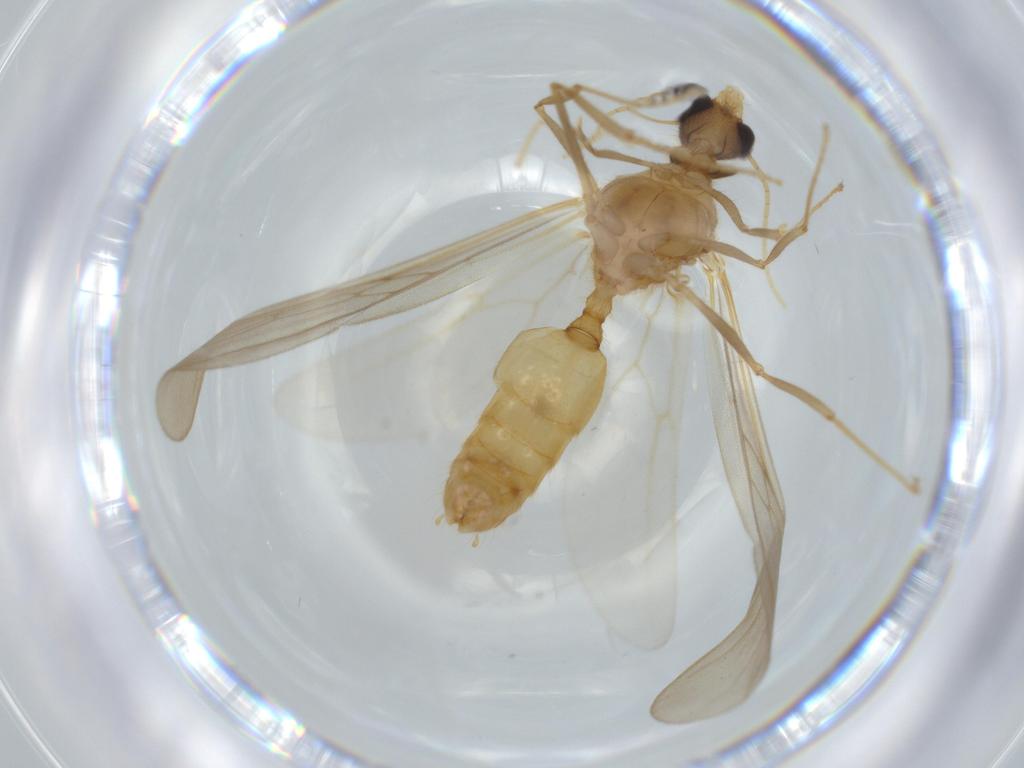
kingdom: Animalia
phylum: Arthropoda
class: Insecta
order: Hymenoptera
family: Formicidae
